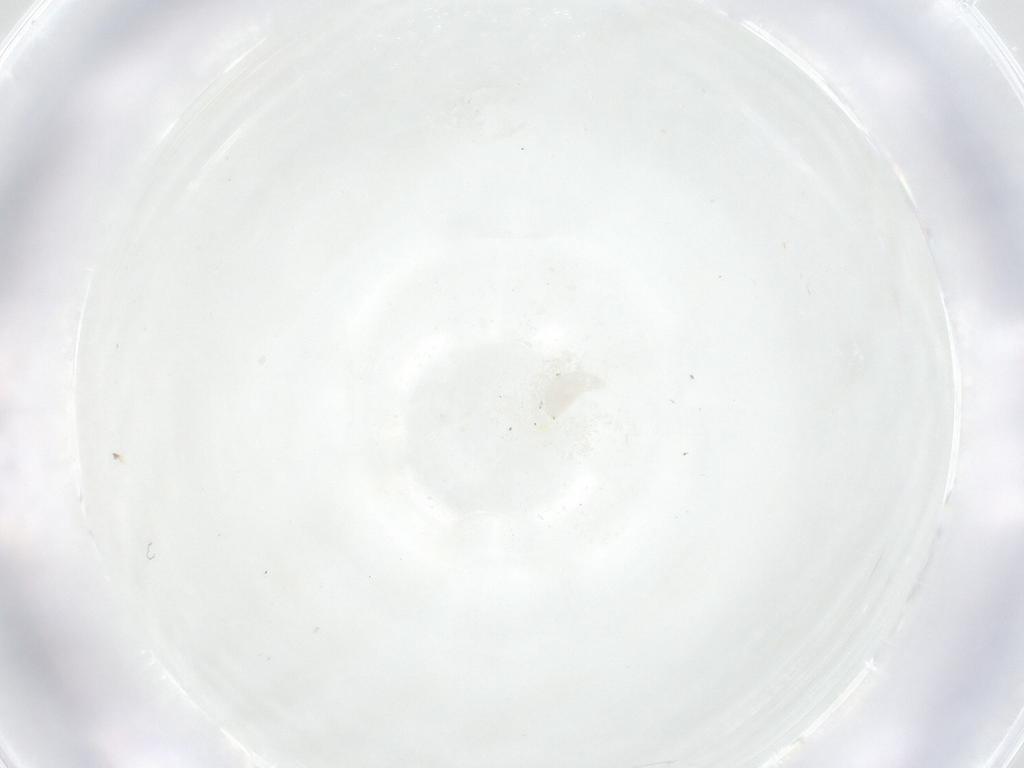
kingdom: Animalia
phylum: Arthropoda
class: Insecta
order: Diptera
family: Fergusoninidae
